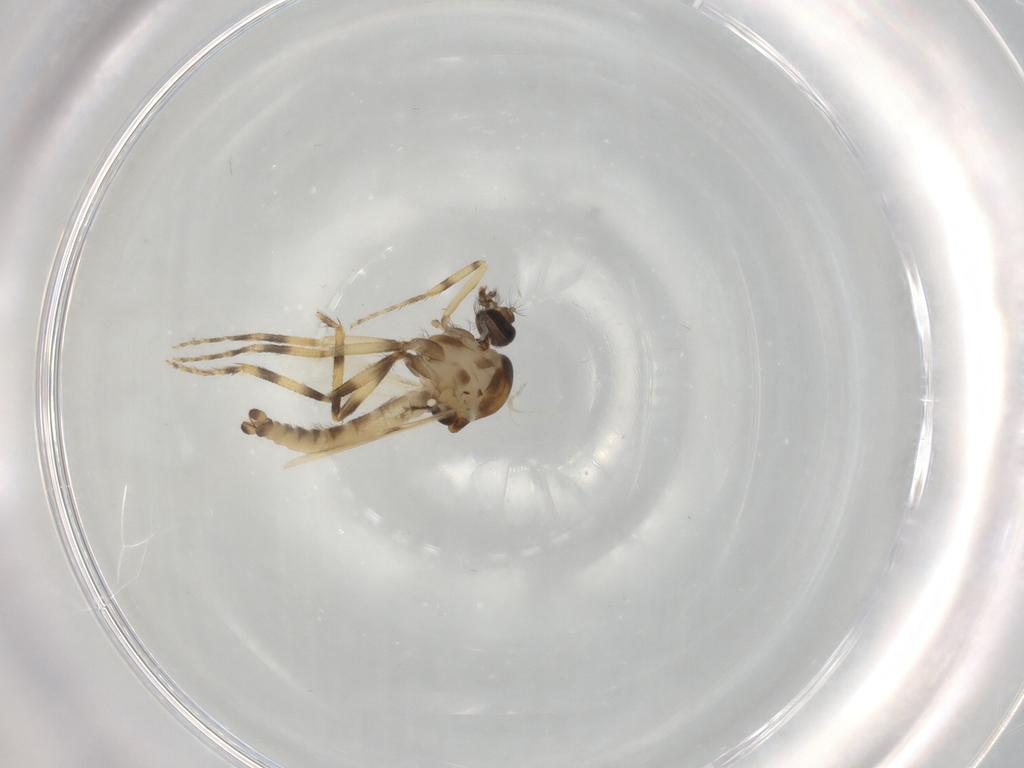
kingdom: Animalia
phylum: Arthropoda
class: Insecta
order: Diptera
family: Ceratopogonidae
